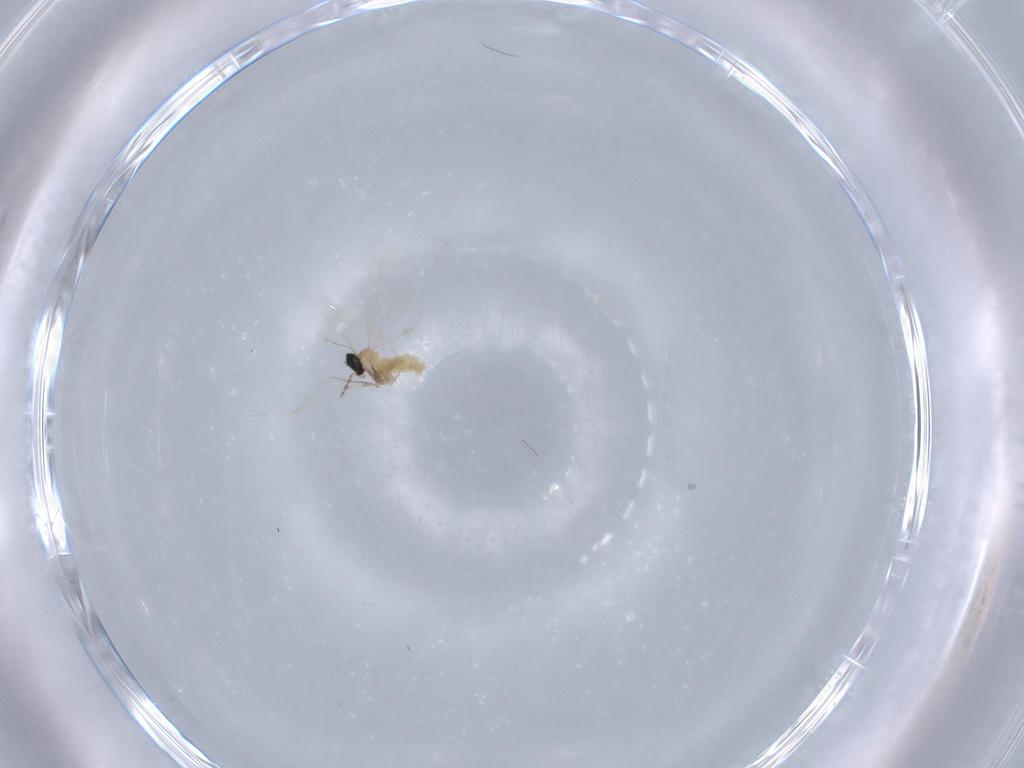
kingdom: Animalia
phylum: Arthropoda
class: Insecta
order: Diptera
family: Cecidomyiidae
